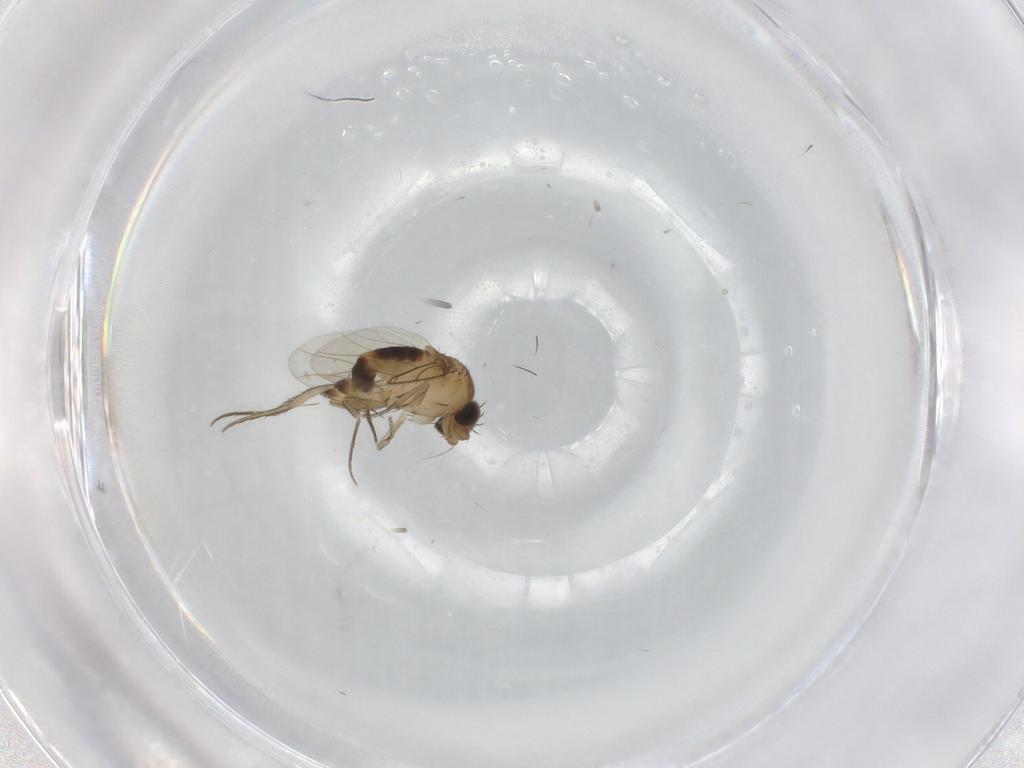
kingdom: Animalia
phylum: Arthropoda
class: Insecta
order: Diptera
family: Phoridae
